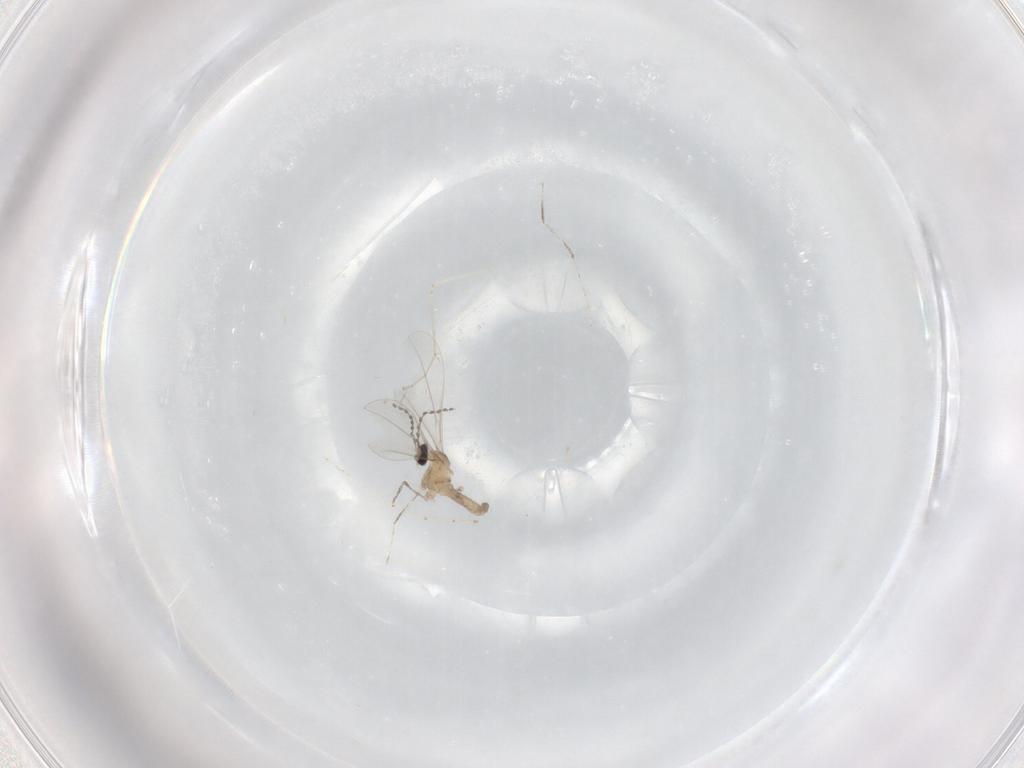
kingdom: Animalia
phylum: Arthropoda
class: Insecta
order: Diptera
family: Cecidomyiidae
